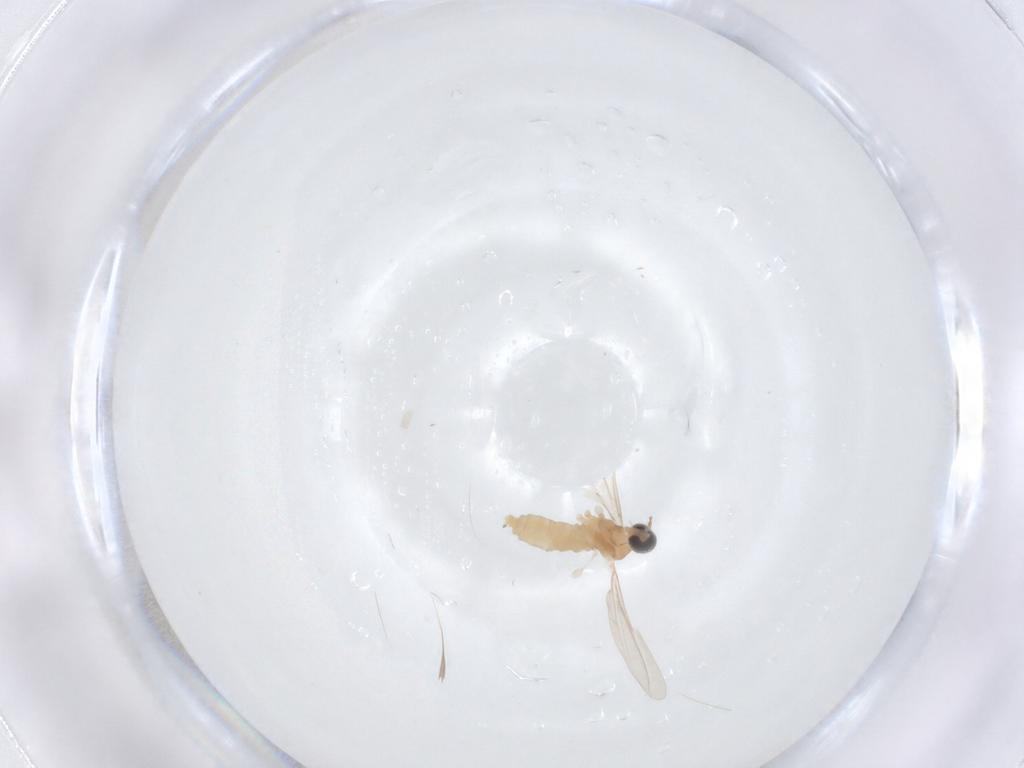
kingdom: Animalia
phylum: Arthropoda
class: Insecta
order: Diptera
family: Cecidomyiidae
